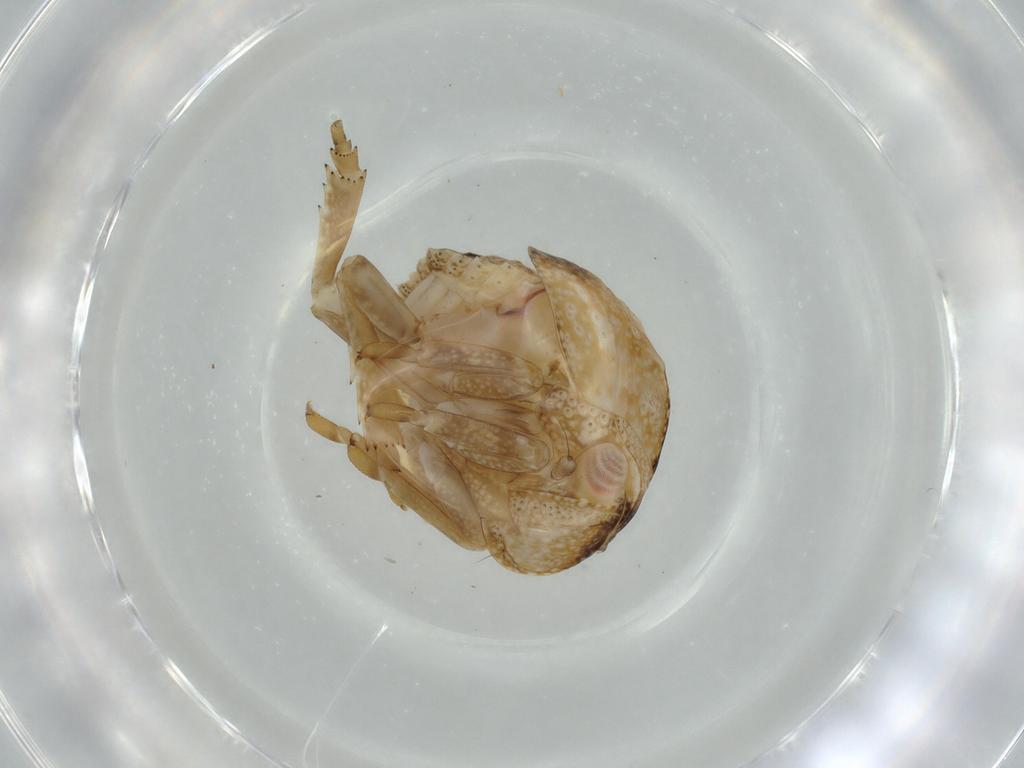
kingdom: Animalia
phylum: Arthropoda
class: Insecta
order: Hemiptera
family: Acanaloniidae
